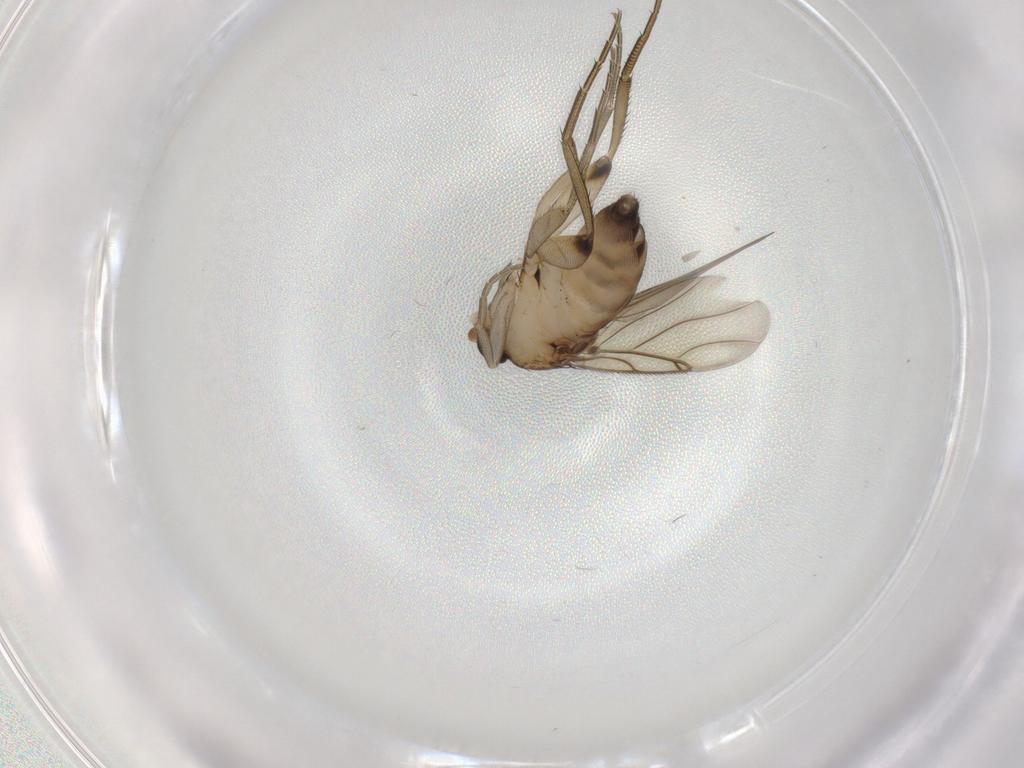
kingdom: Animalia
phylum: Arthropoda
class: Insecta
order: Diptera
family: Phoridae
